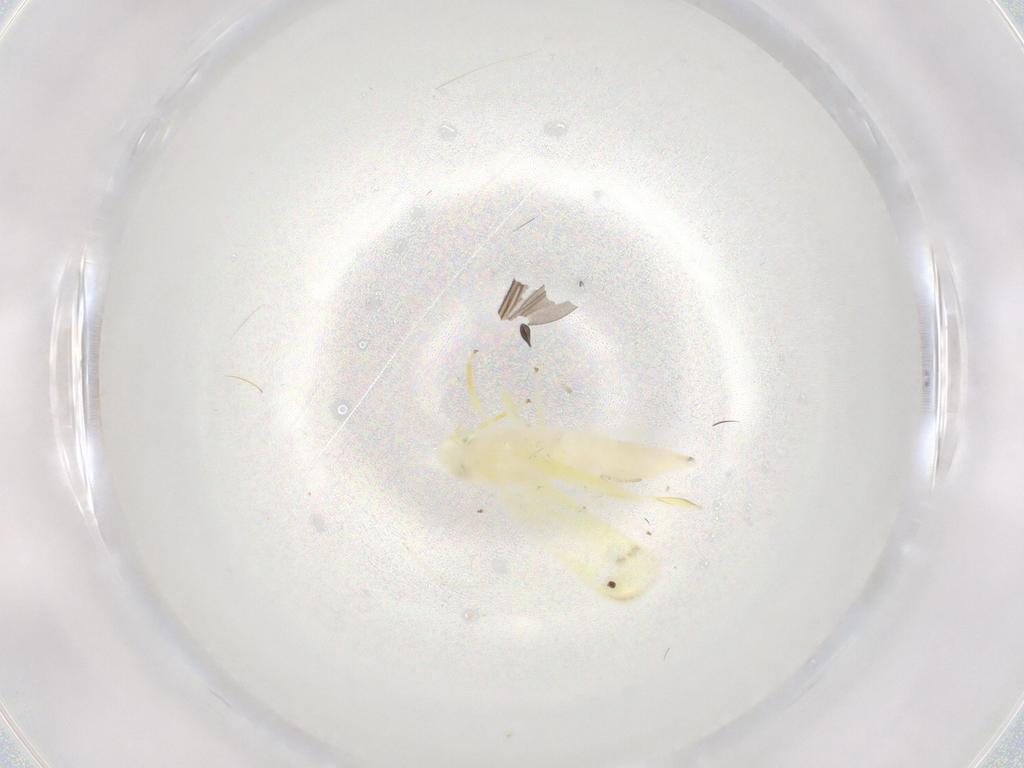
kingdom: Animalia
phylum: Arthropoda
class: Insecta
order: Hemiptera
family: Cicadellidae
